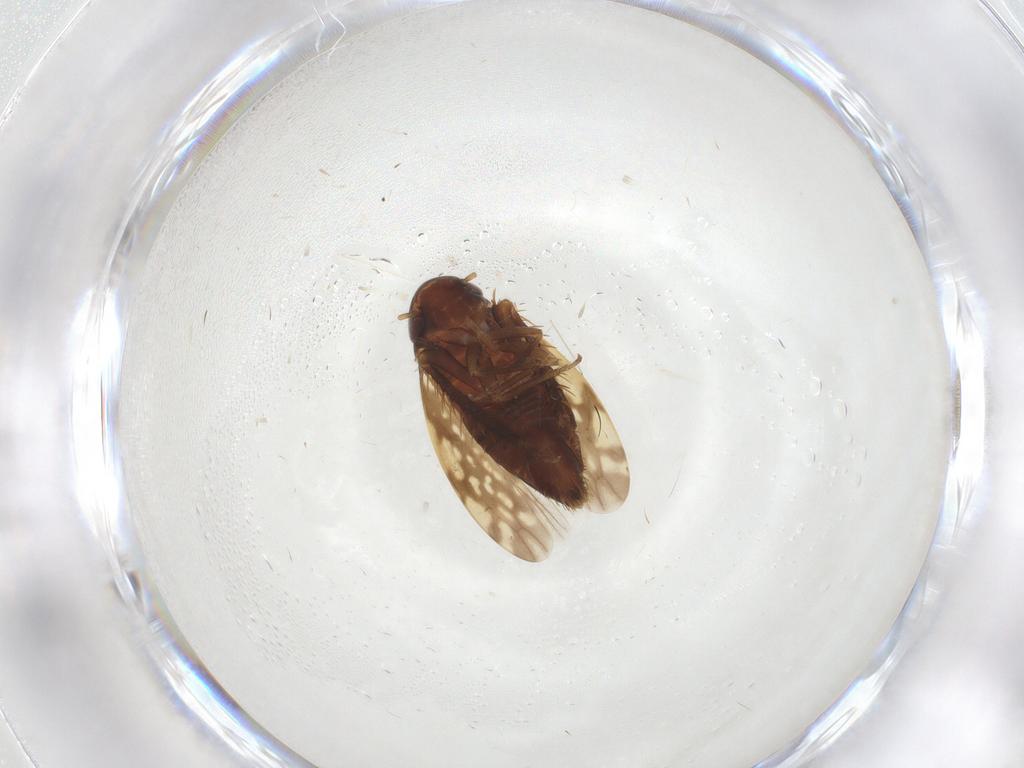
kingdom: Animalia
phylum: Arthropoda
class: Insecta
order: Hemiptera
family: Cicadellidae
